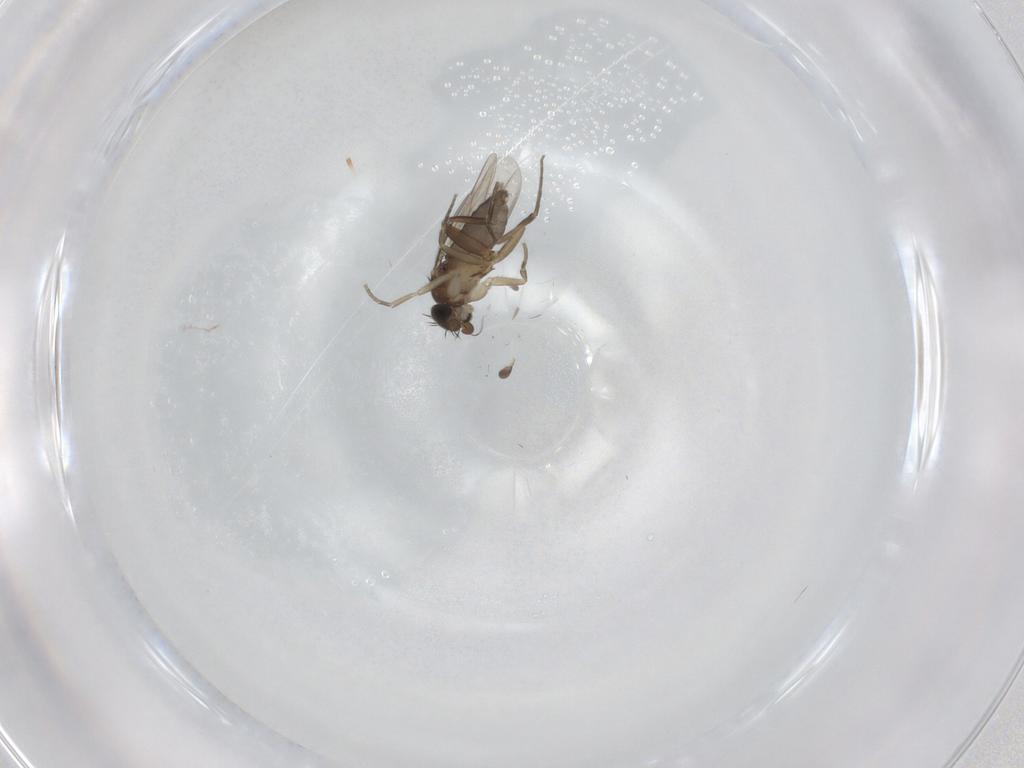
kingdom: Animalia
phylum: Arthropoda
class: Insecta
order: Diptera
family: Phoridae
